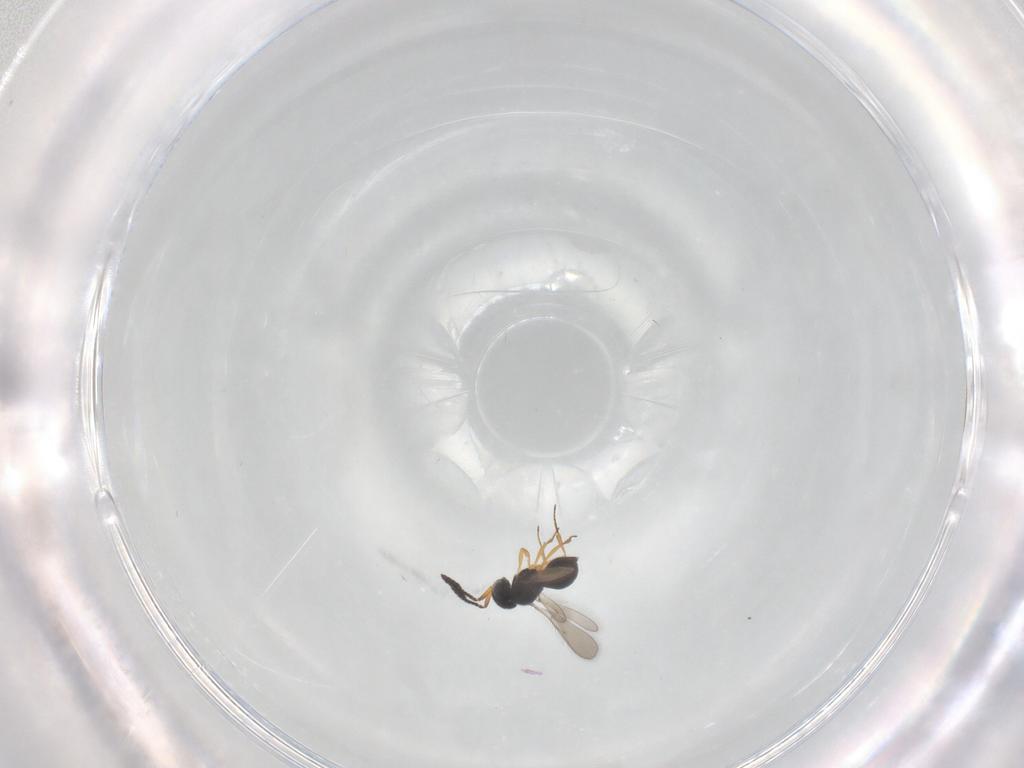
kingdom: Animalia
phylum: Arthropoda
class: Insecta
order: Hymenoptera
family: Scelionidae
